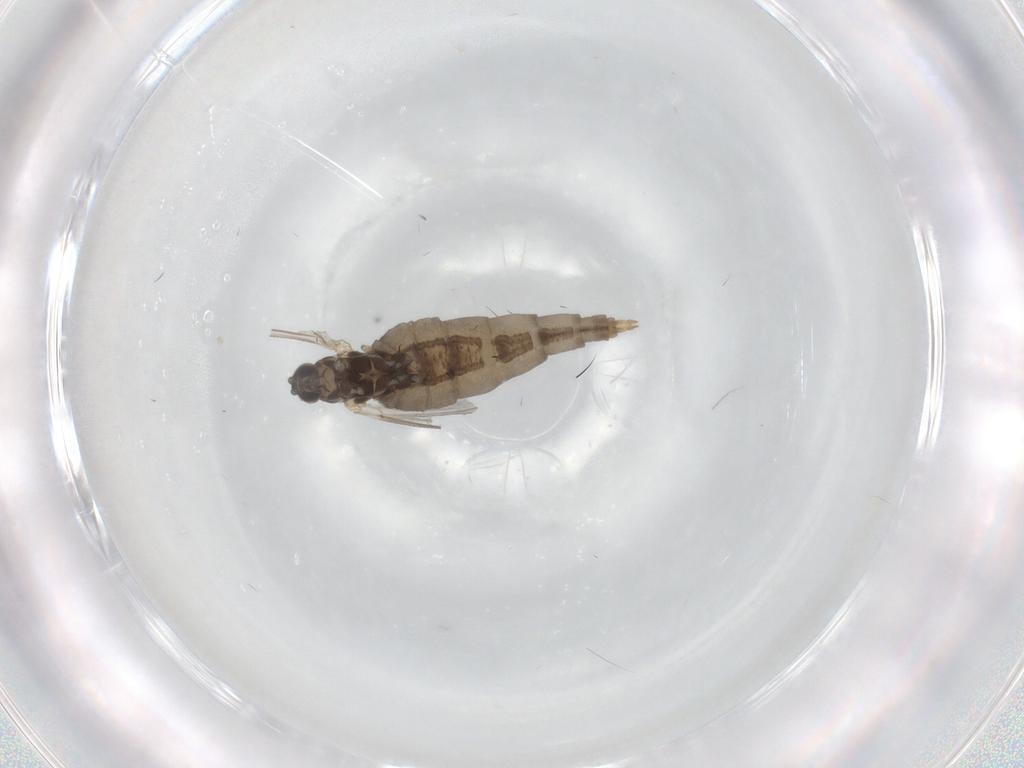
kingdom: Animalia
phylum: Arthropoda
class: Insecta
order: Diptera
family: Cecidomyiidae
